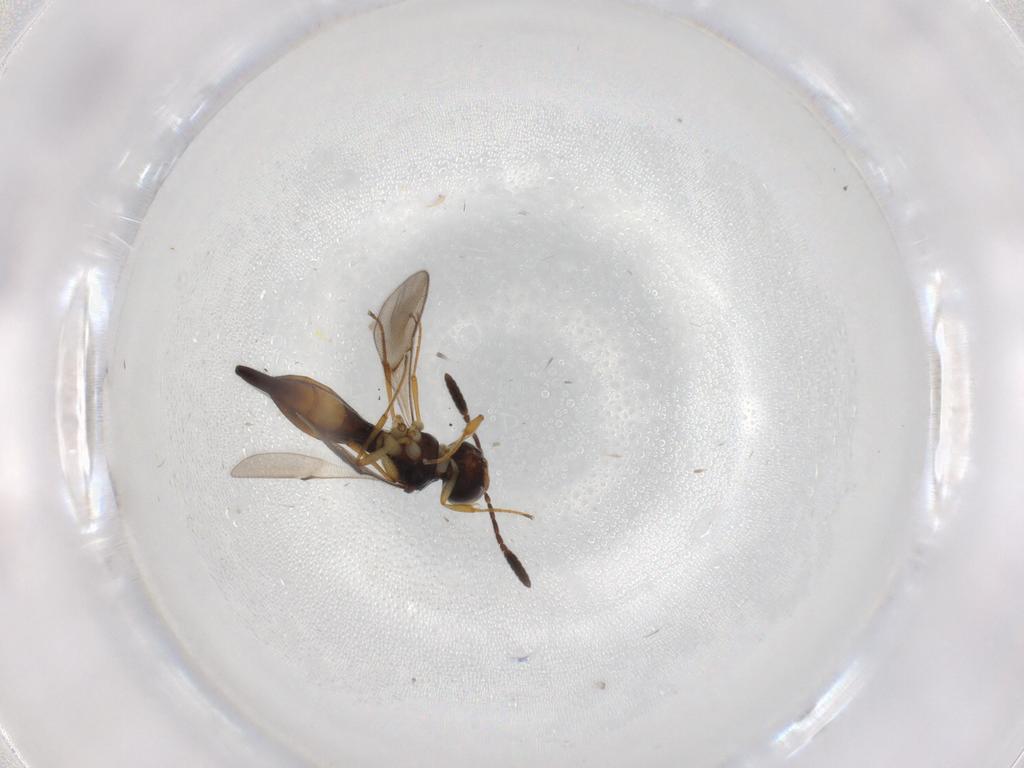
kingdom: Animalia
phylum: Arthropoda
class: Insecta
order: Hymenoptera
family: Scelionidae
